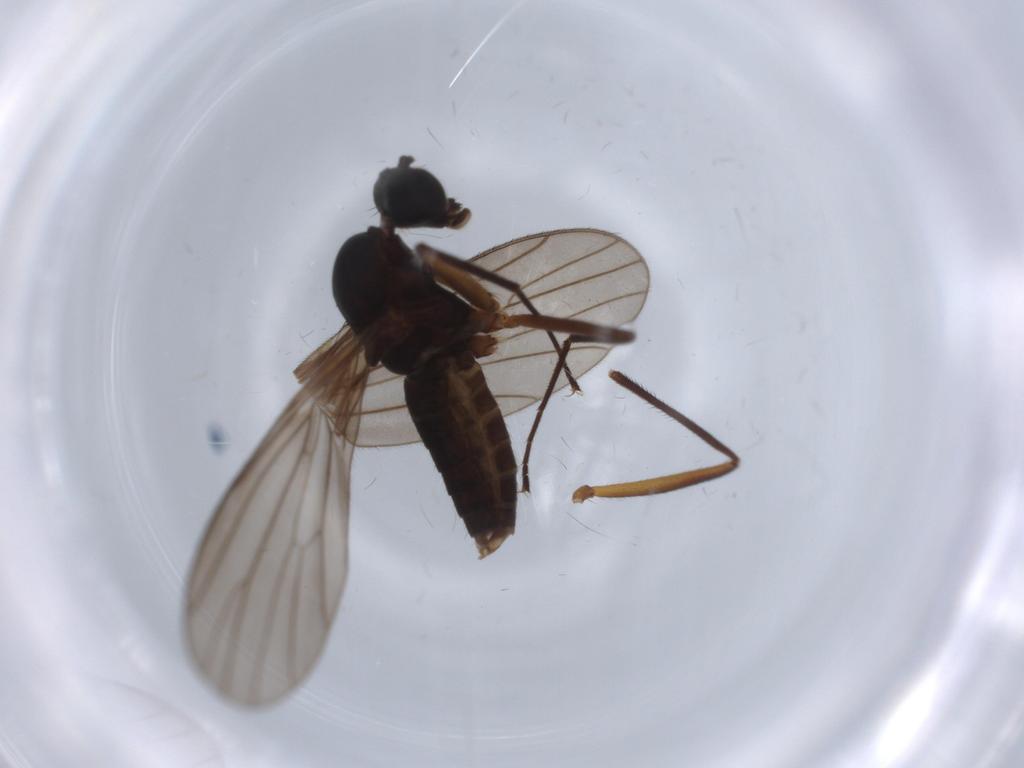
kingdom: Animalia
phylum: Arthropoda
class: Insecta
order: Diptera
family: Empididae
